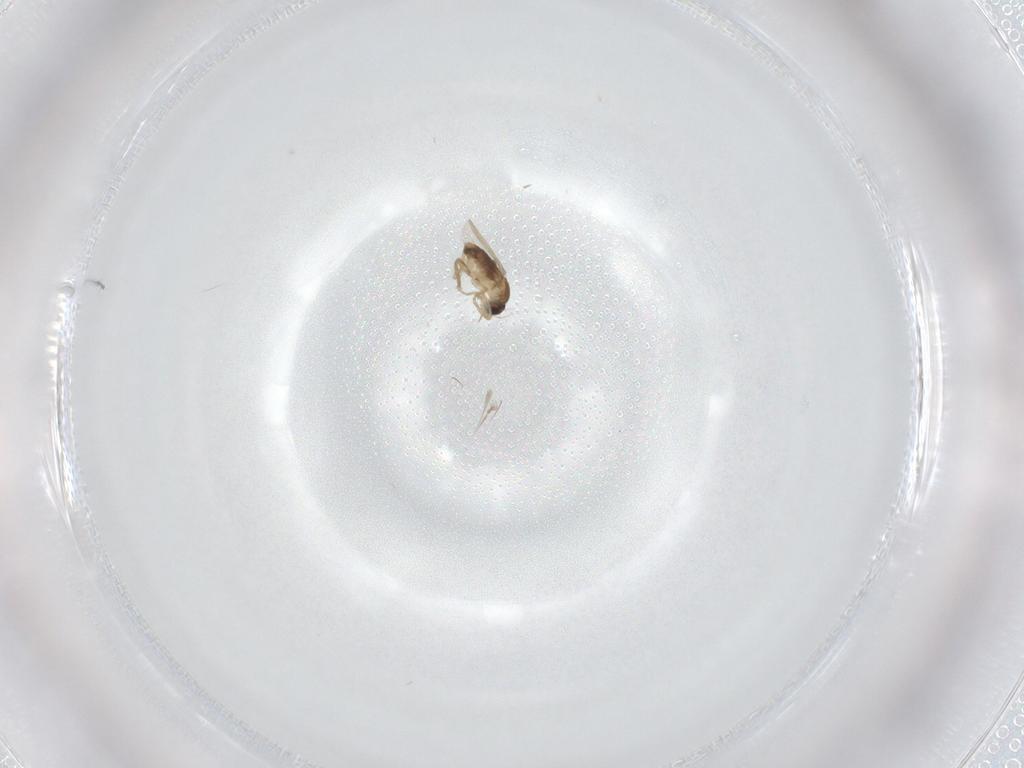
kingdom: Animalia
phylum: Arthropoda
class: Insecta
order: Diptera
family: Phoridae
